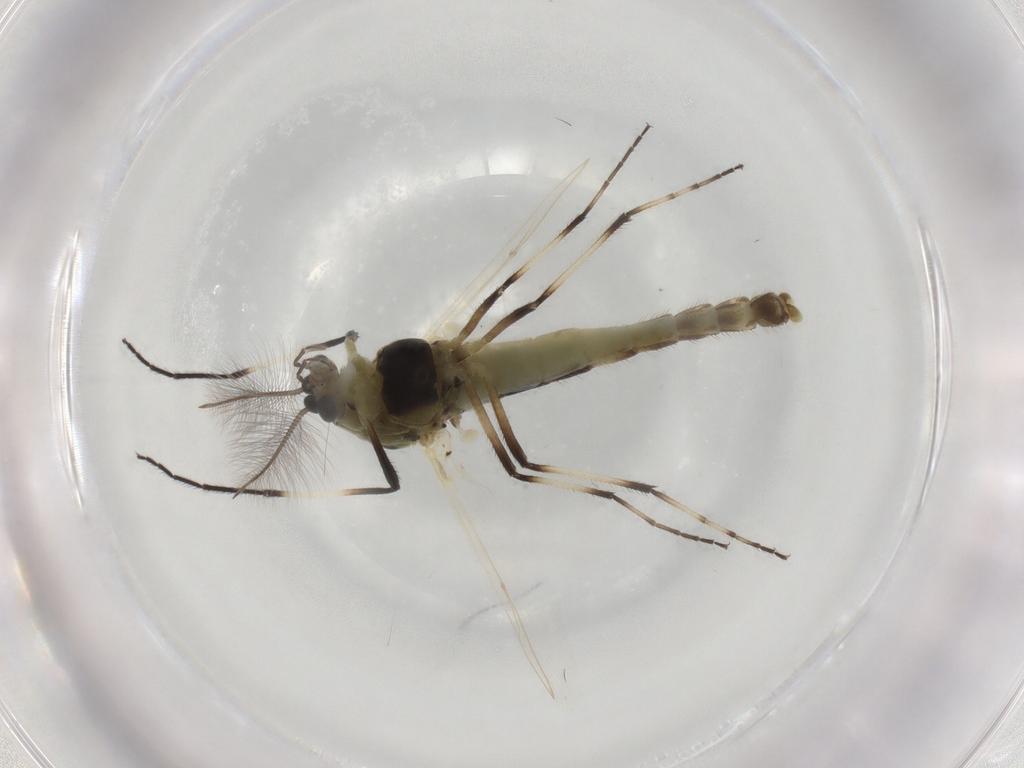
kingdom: Animalia
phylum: Arthropoda
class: Insecta
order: Diptera
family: Chironomidae
